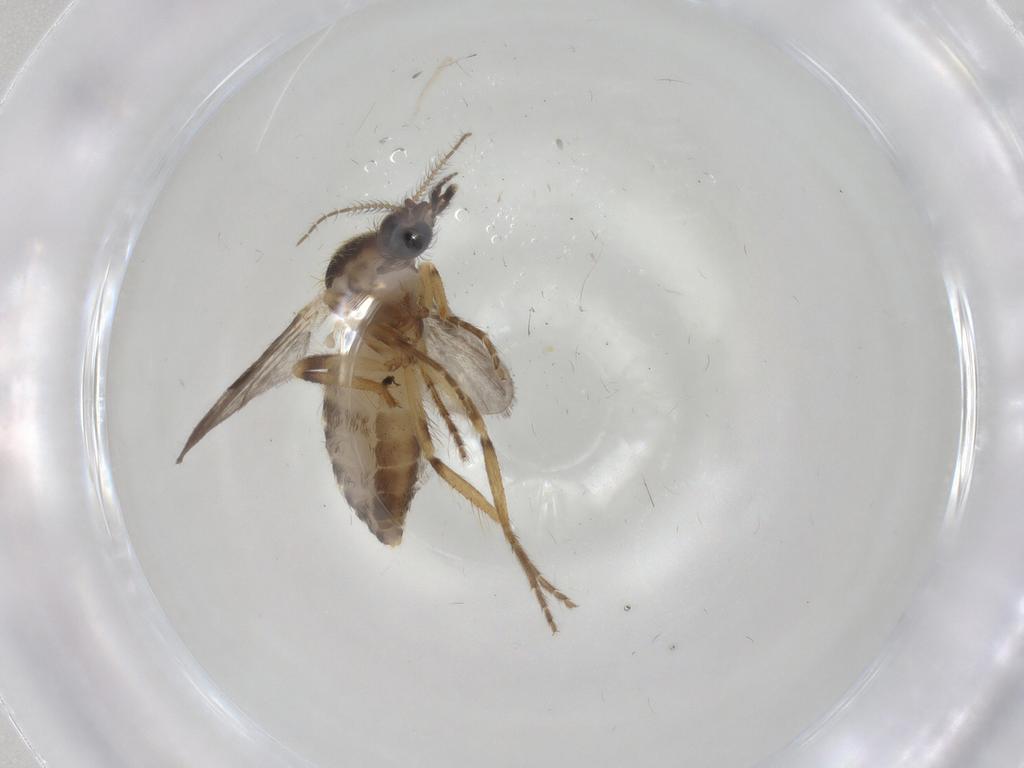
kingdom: Animalia
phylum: Arthropoda
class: Insecta
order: Diptera
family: Ceratopogonidae
